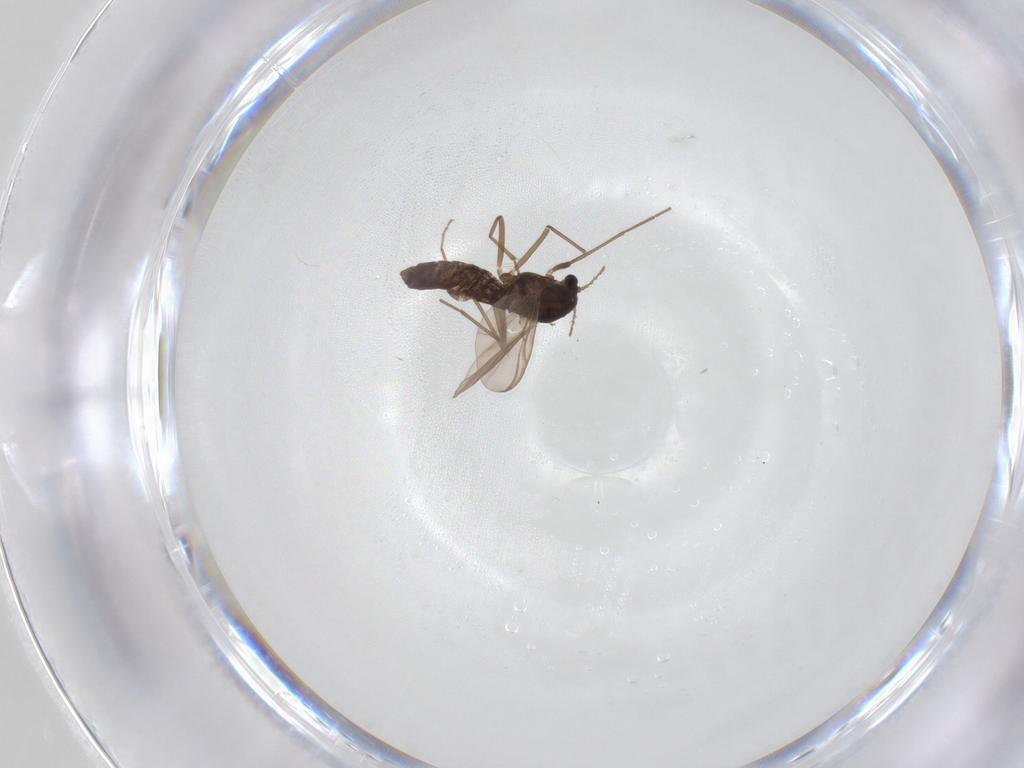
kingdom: Animalia
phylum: Arthropoda
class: Insecta
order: Diptera
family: Chironomidae
